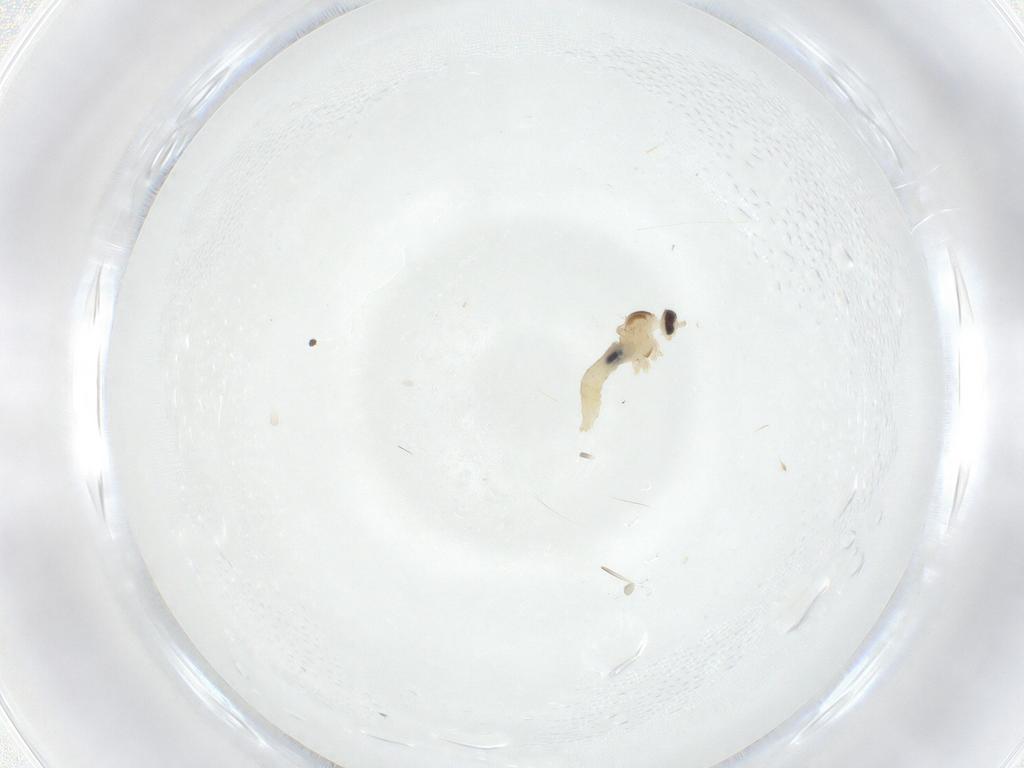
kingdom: Animalia
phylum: Arthropoda
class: Insecta
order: Diptera
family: Cecidomyiidae
